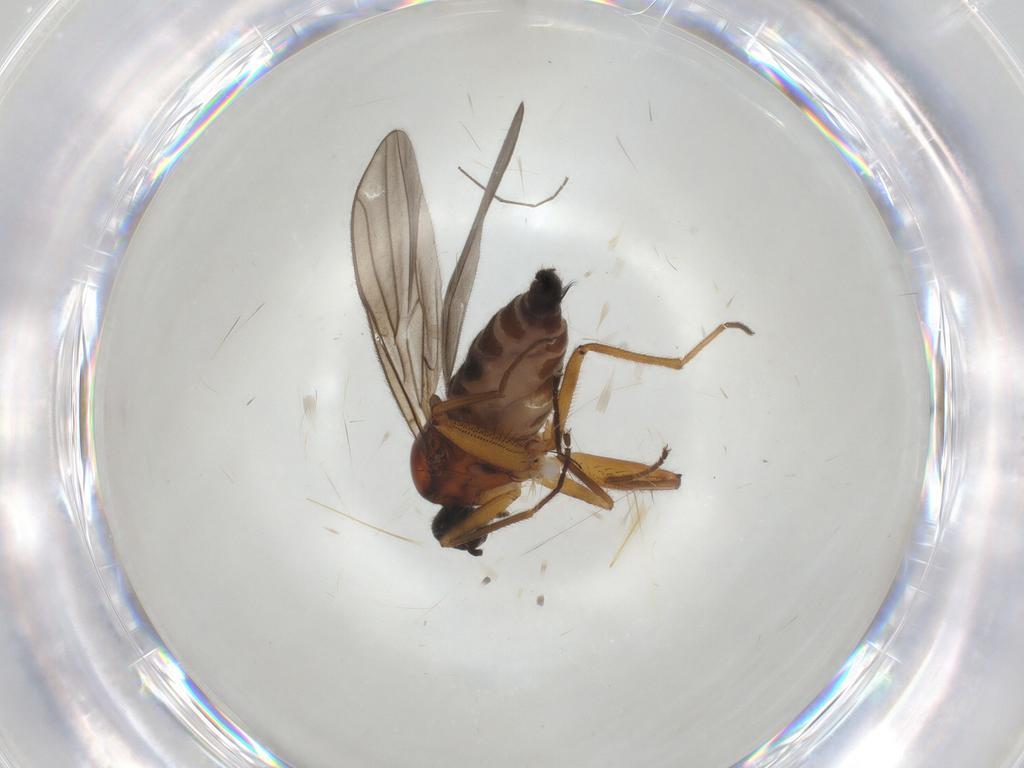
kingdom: Animalia
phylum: Arthropoda
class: Insecta
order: Diptera
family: Hybotidae
